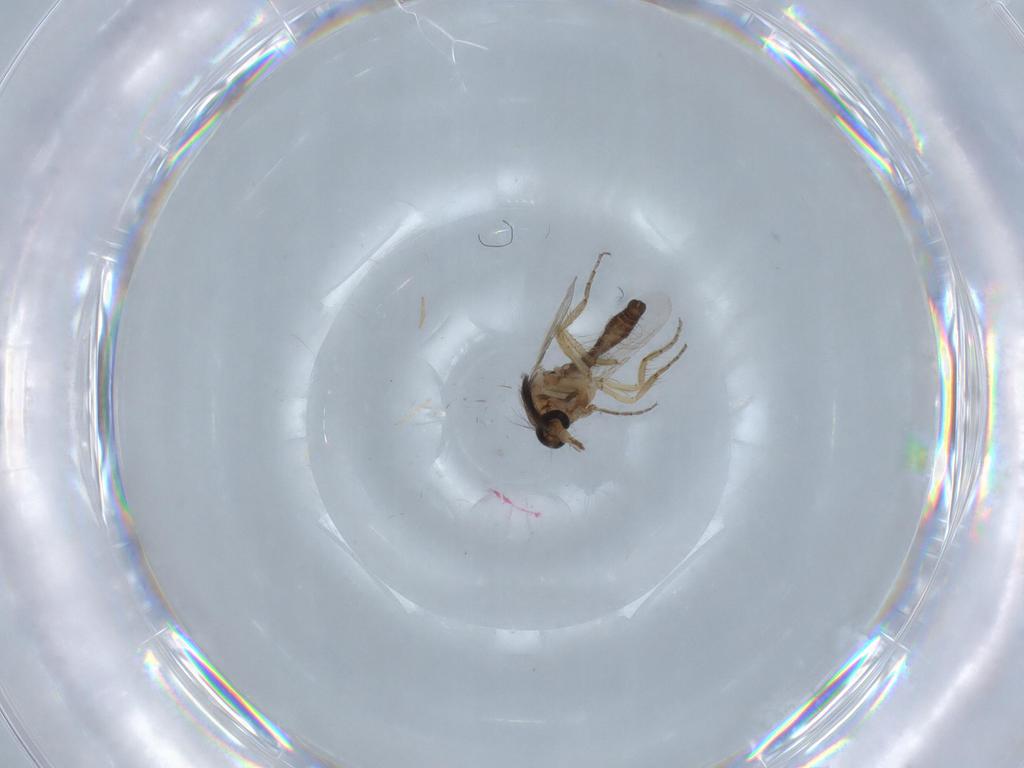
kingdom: Animalia
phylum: Arthropoda
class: Insecta
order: Diptera
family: Ceratopogonidae
